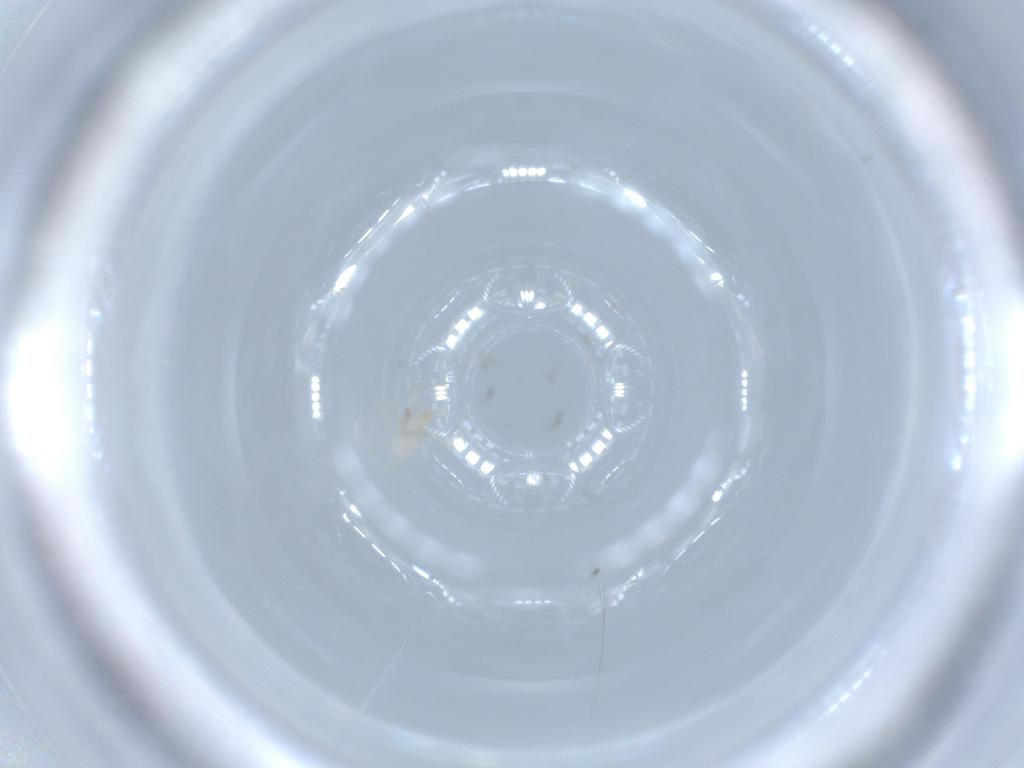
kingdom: Animalia
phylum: Arthropoda
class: Arachnida
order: Trombidiformes
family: Erythraeidae
